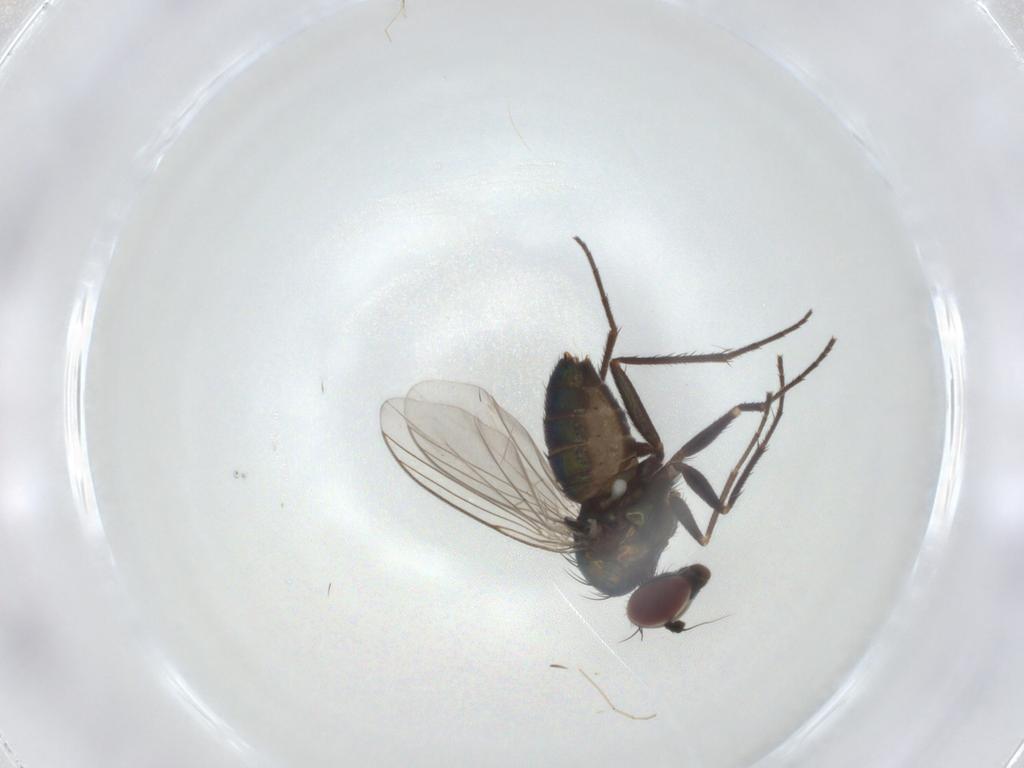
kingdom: Animalia
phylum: Arthropoda
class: Insecta
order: Diptera
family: Dolichopodidae
